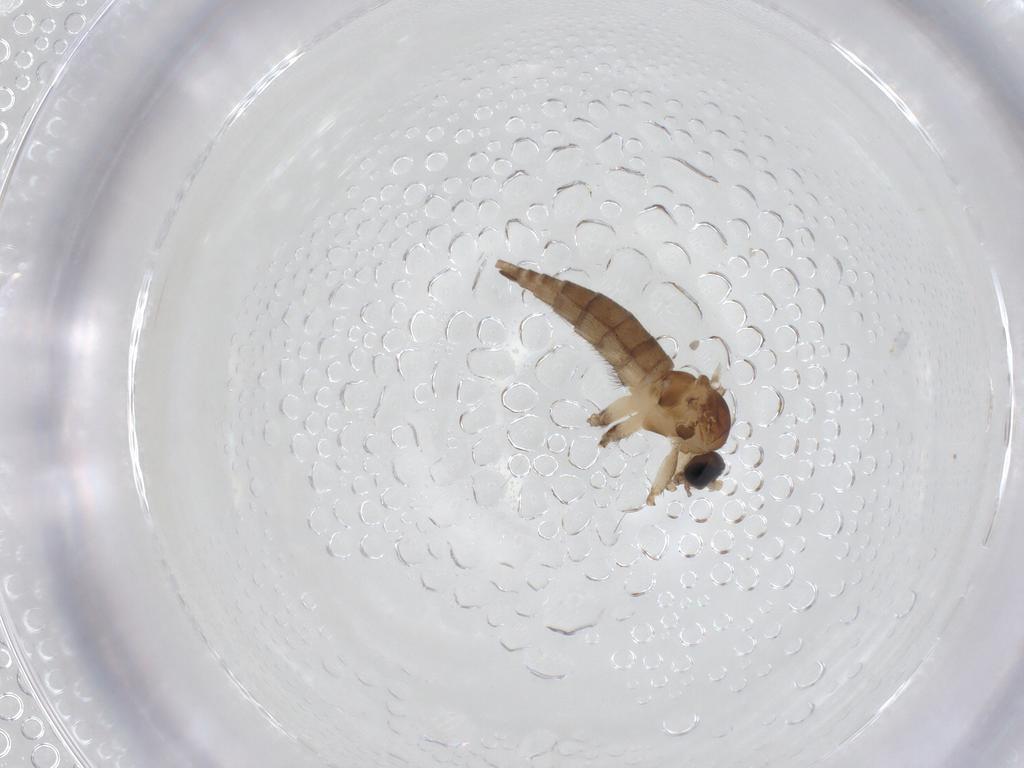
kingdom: Animalia
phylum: Arthropoda
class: Insecta
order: Diptera
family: Sciaridae
